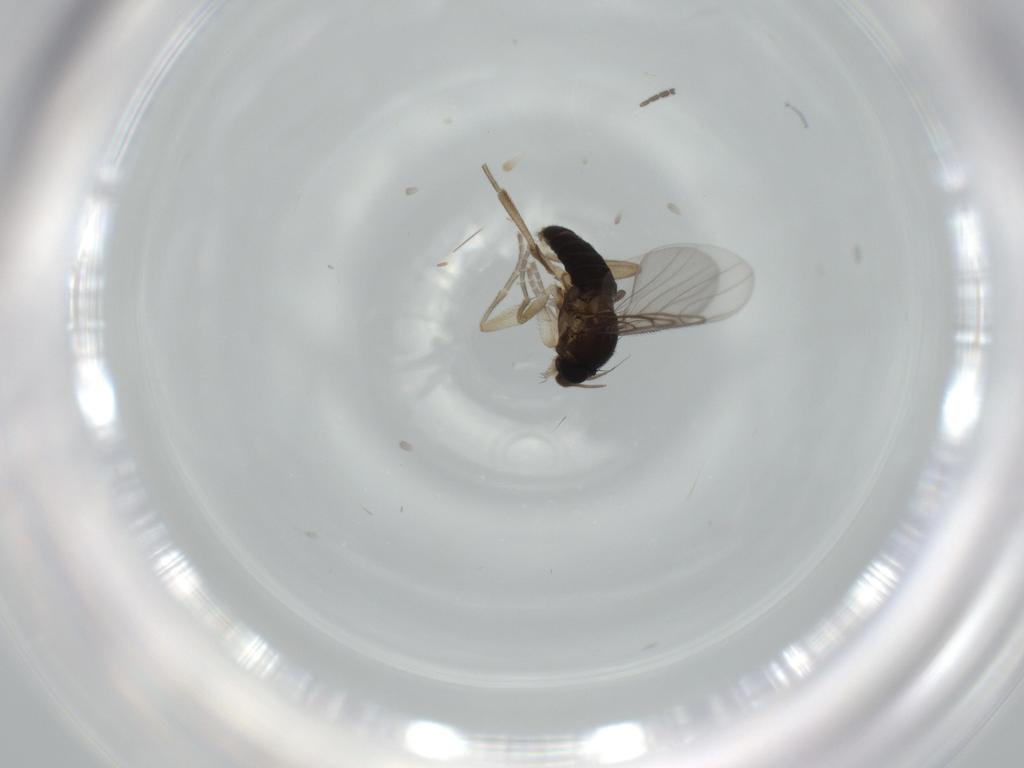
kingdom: Animalia
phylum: Arthropoda
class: Insecta
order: Diptera
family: Sciaridae
